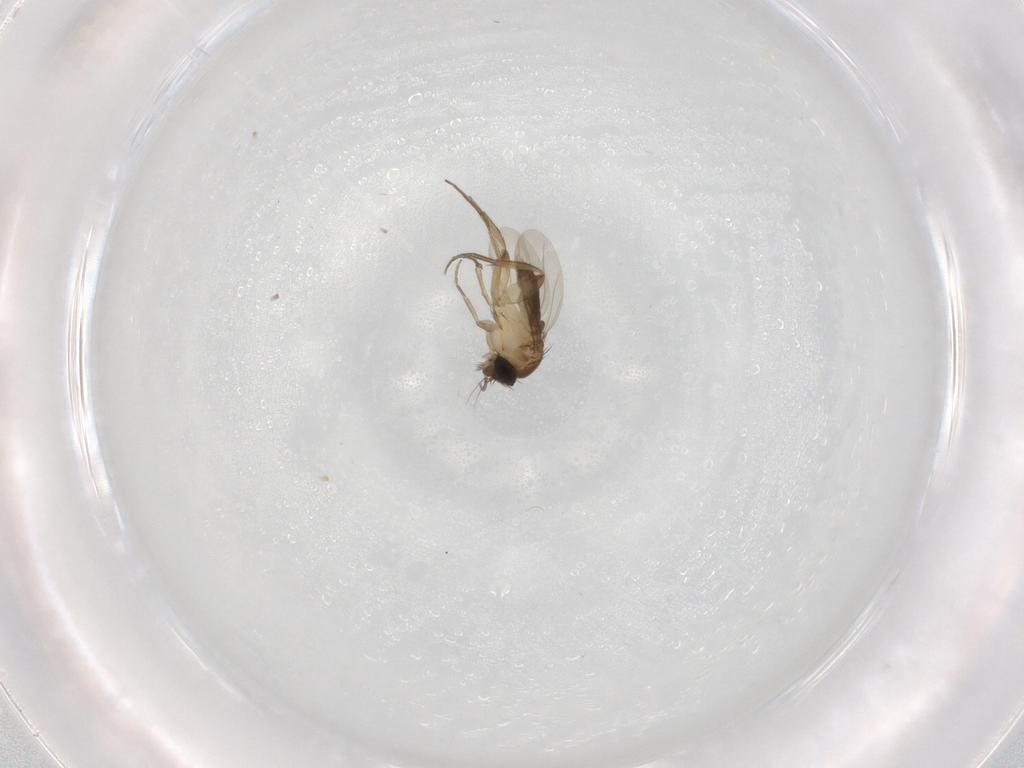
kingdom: Animalia
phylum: Arthropoda
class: Insecta
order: Diptera
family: Phoridae
